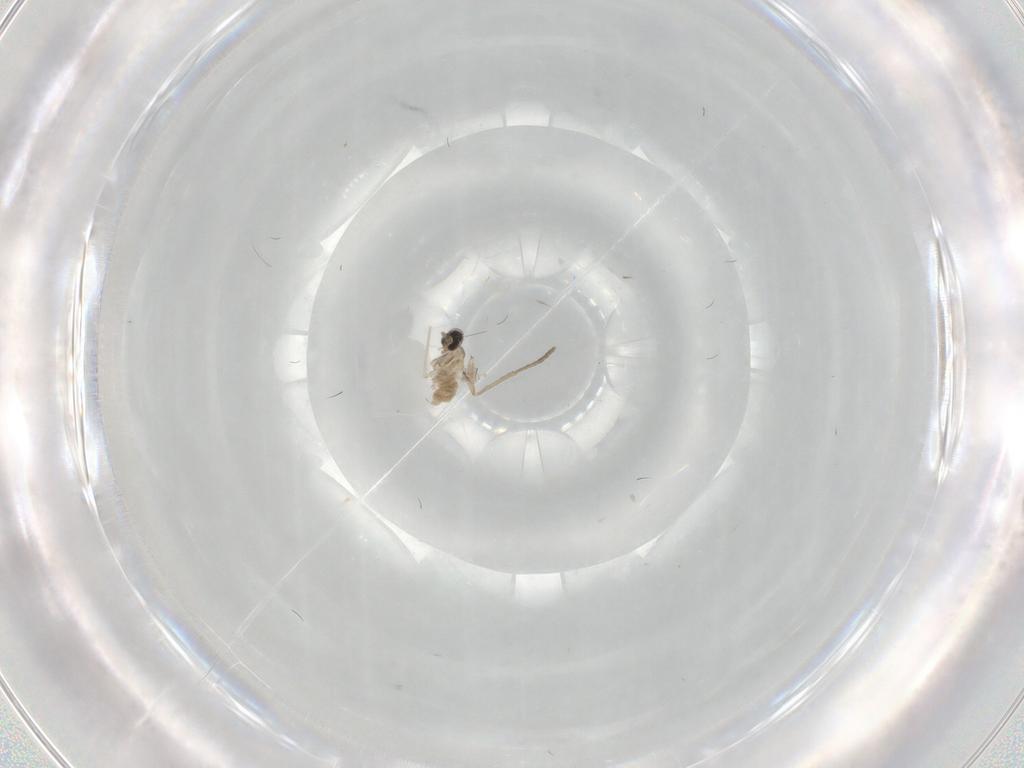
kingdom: Animalia
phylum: Arthropoda
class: Insecta
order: Diptera
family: Cecidomyiidae
